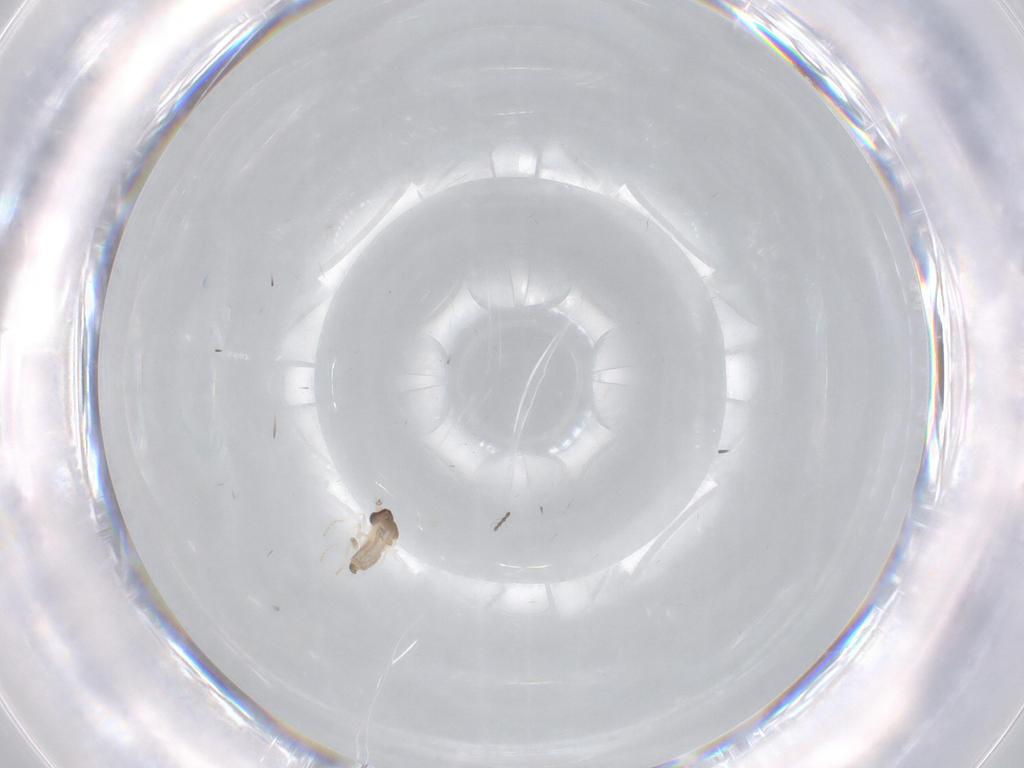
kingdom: Animalia
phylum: Arthropoda
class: Insecta
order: Diptera
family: Cecidomyiidae
